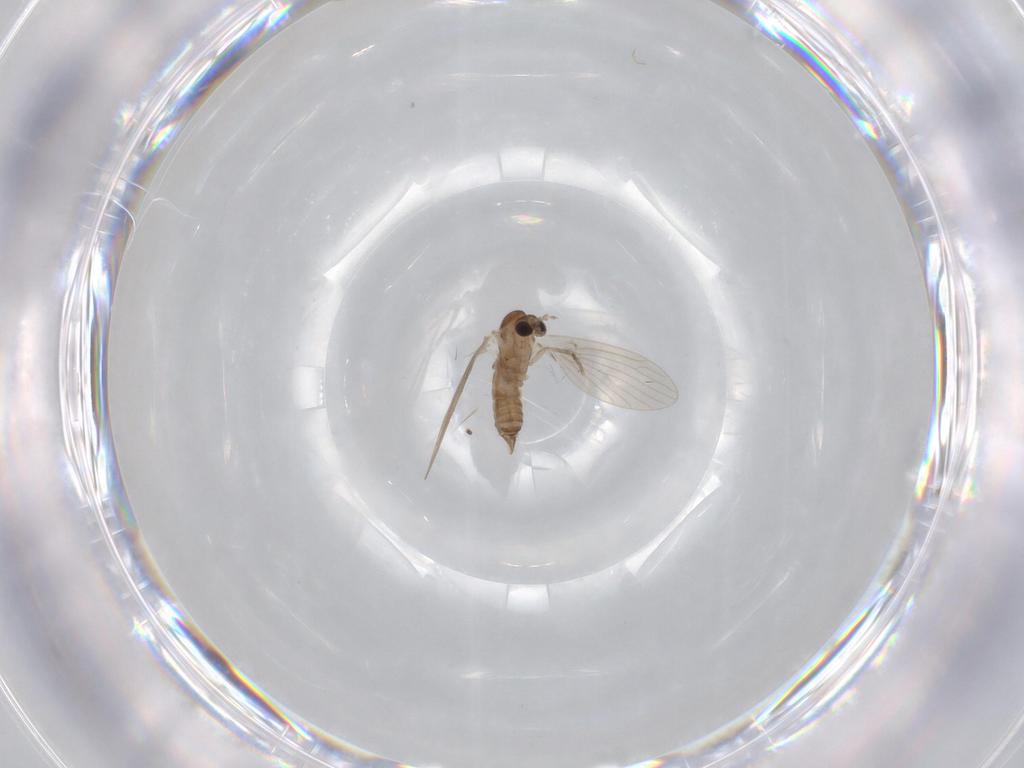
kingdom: Animalia
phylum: Arthropoda
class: Insecta
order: Diptera
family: Psychodidae
